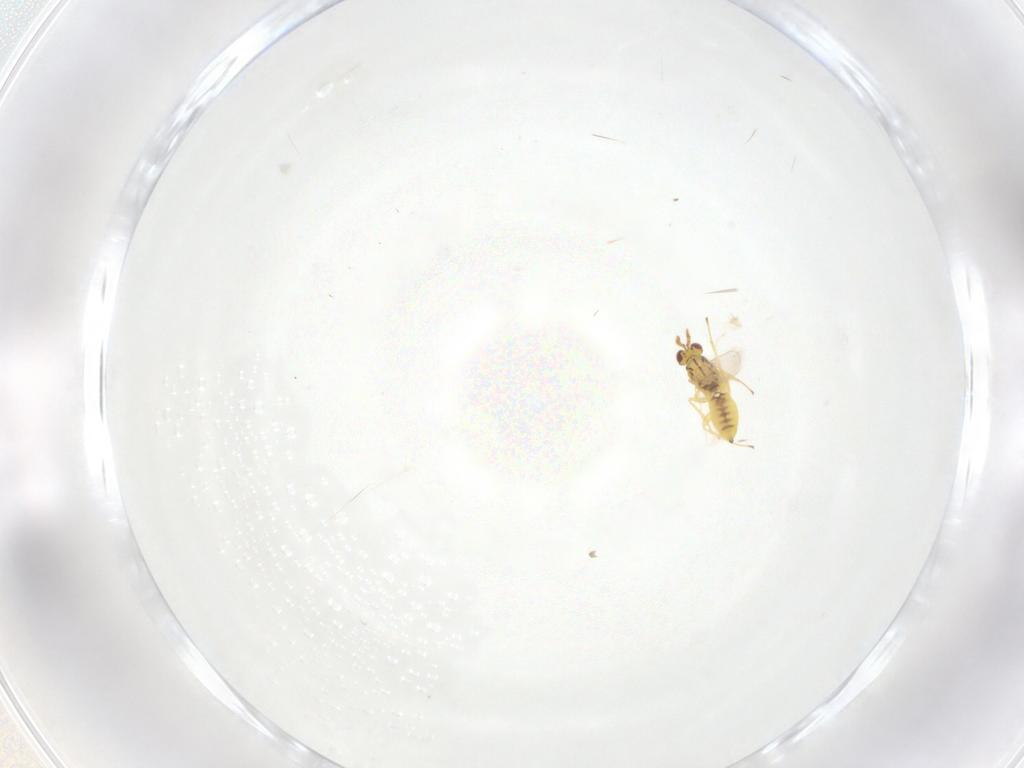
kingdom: Animalia
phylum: Arthropoda
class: Insecta
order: Hymenoptera
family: Eulophidae
